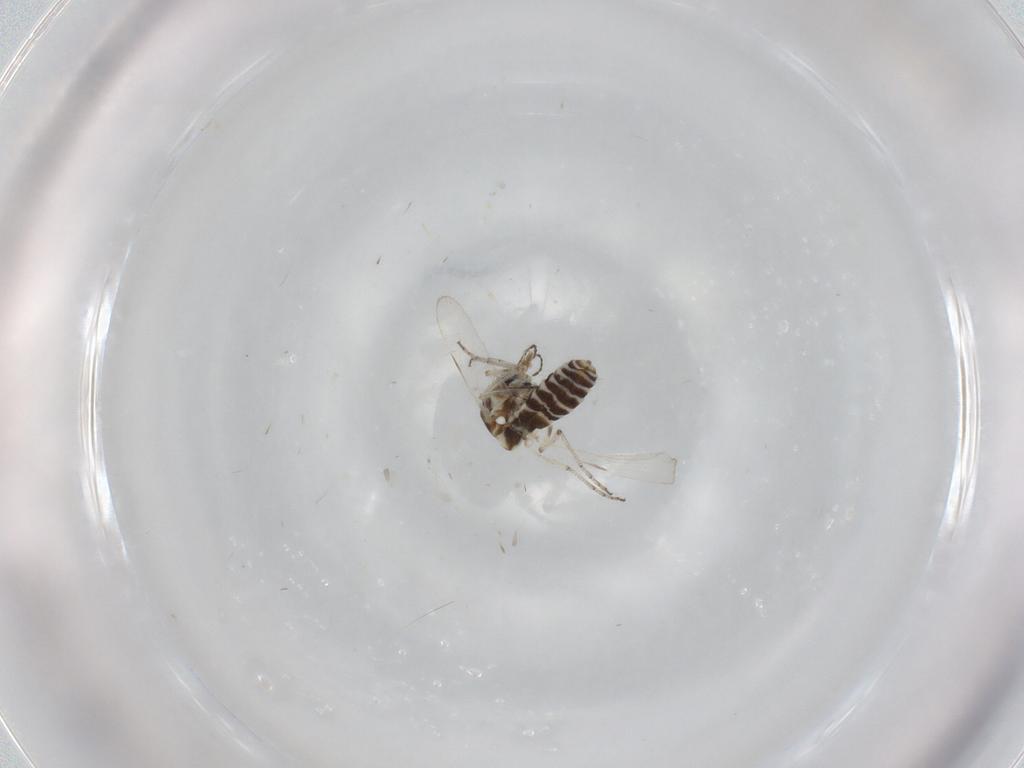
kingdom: Animalia
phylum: Arthropoda
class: Insecta
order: Diptera
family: Ceratopogonidae
